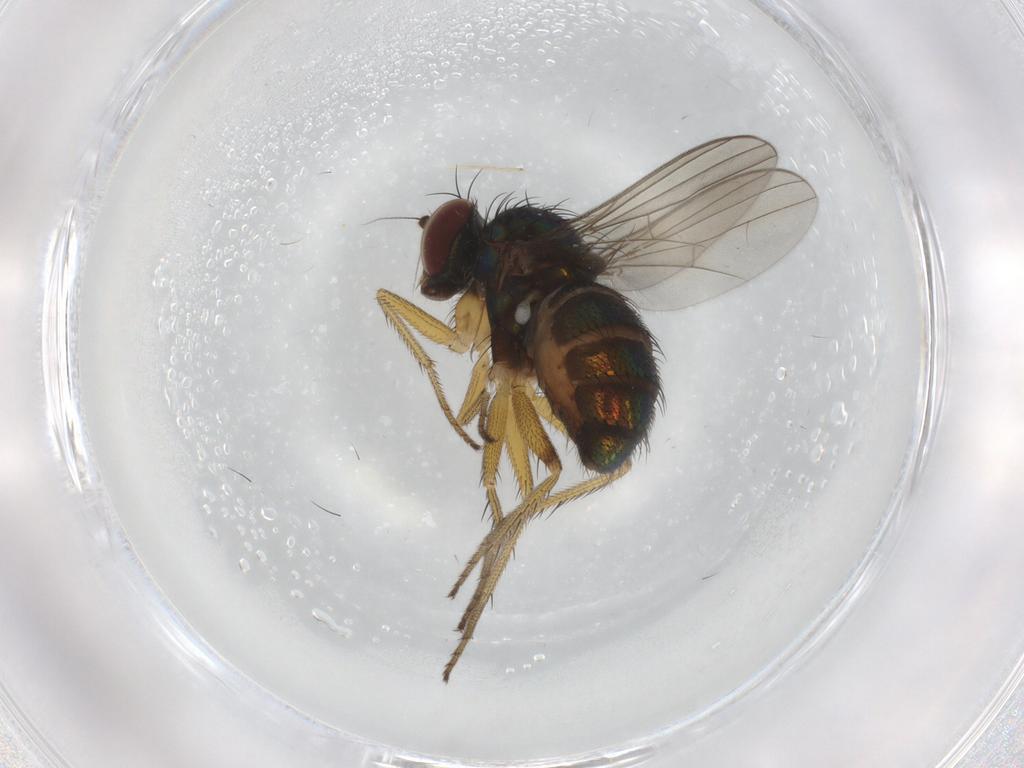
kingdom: Animalia
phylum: Arthropoda
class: Insecta
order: Diptera
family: Dolichopodidae
